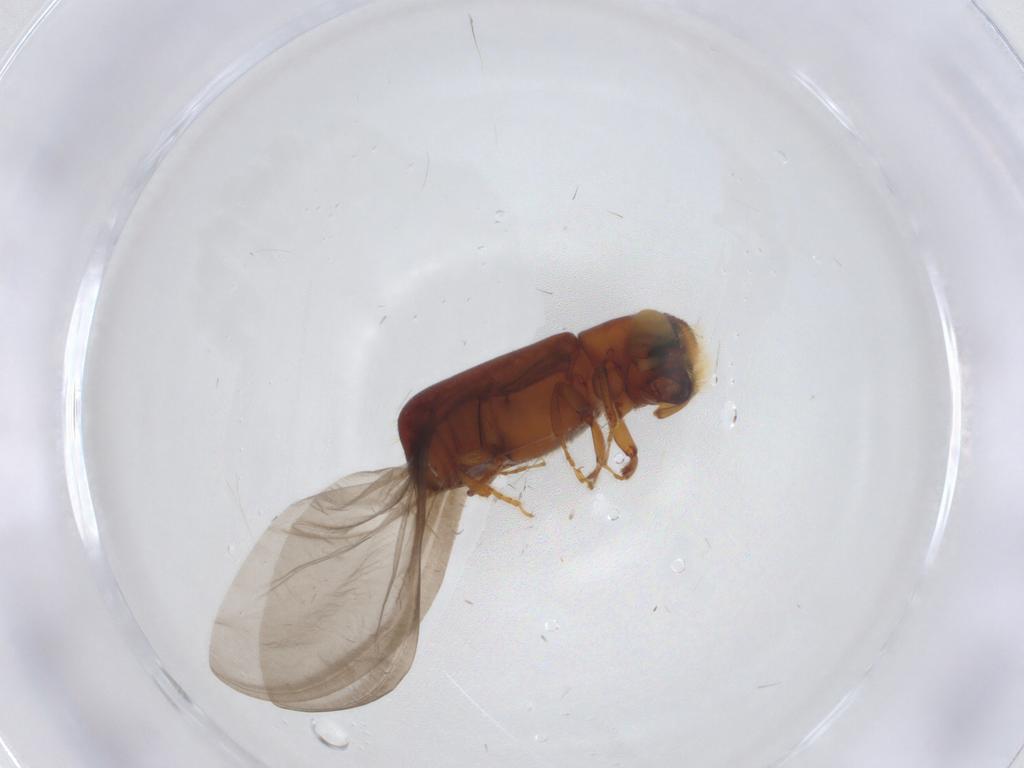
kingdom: Animalia
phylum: Arthropoda
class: Insecta
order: Coleoptera
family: Curculionidae
